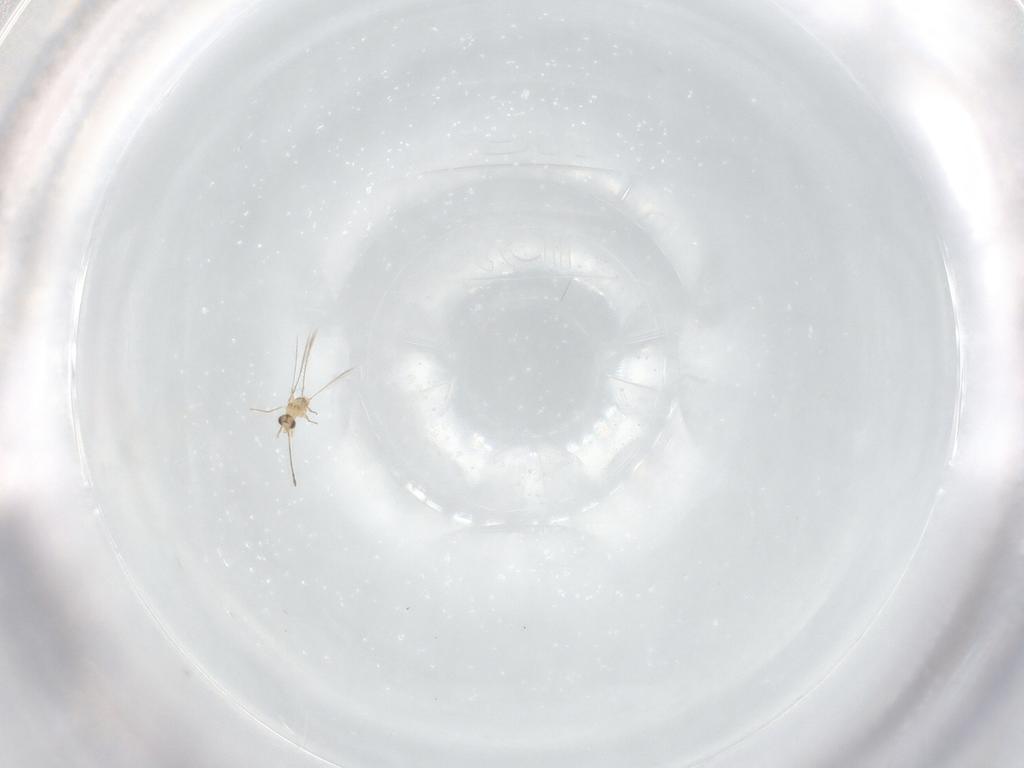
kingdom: Animalia
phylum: Arthropoda
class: Insecta
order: Hymenoptera
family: Mymaridae
